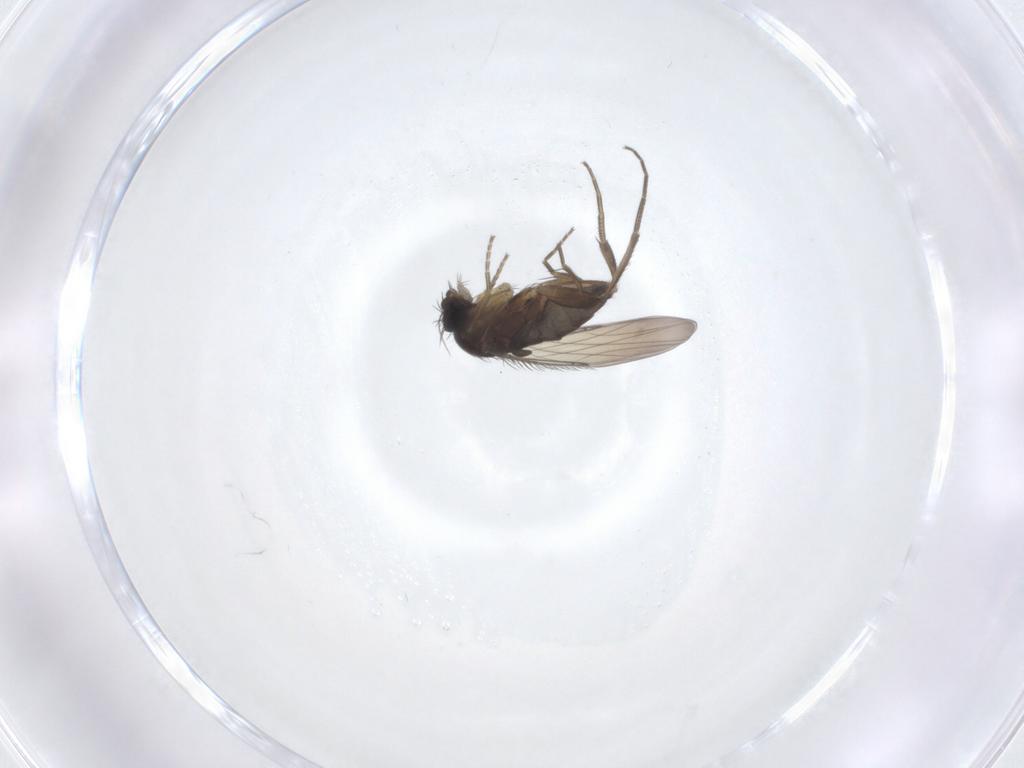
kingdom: Animalia
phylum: Arthropoda
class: Insecta
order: Diptera
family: Sciaridae
